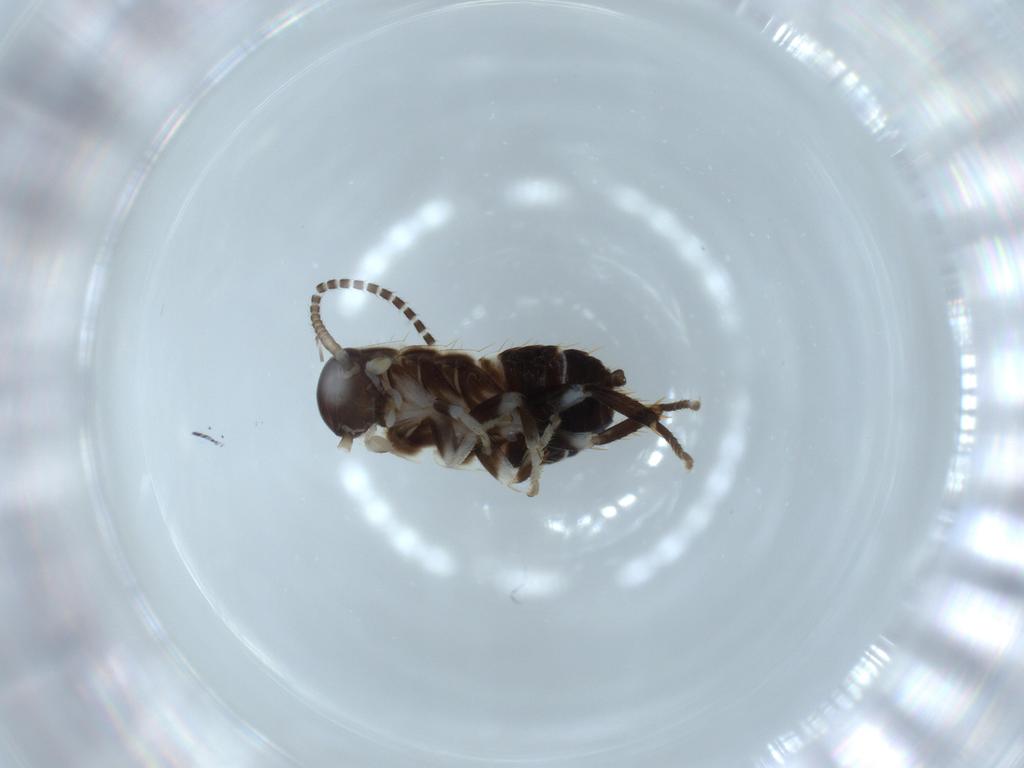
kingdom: Animalia
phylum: Arthropoda
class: Insecta
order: Blattodea
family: Ectobiidae
